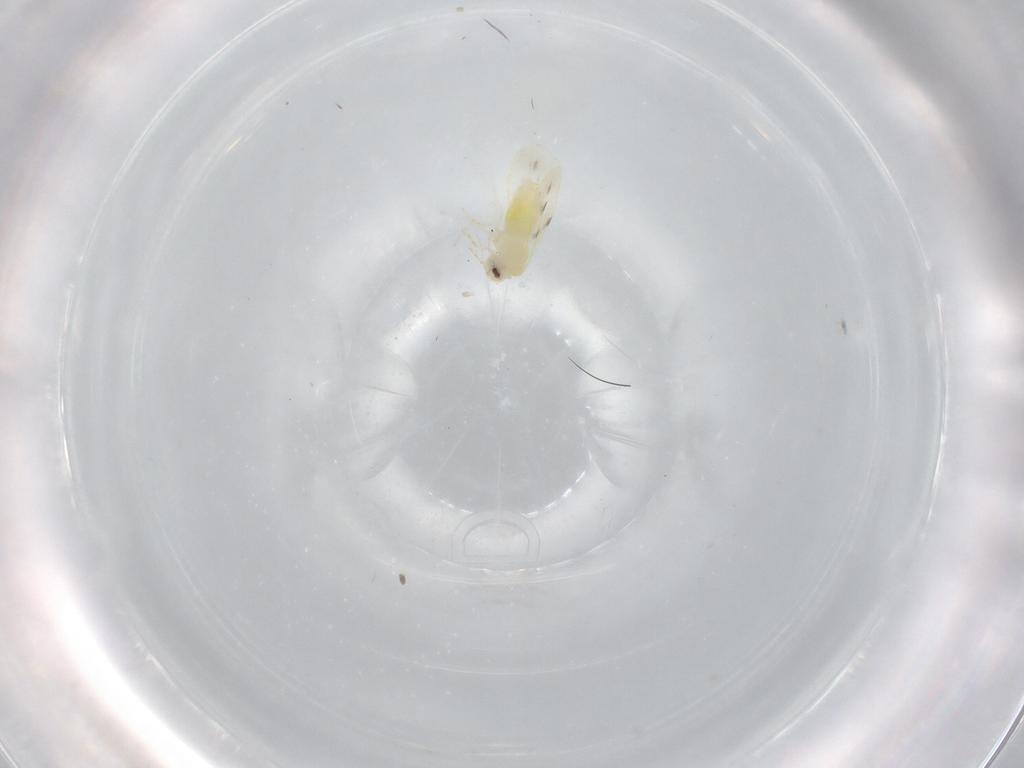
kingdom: Animalia
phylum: Arthropoda
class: Insecta
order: Hemiptera
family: Aleyrodidae
